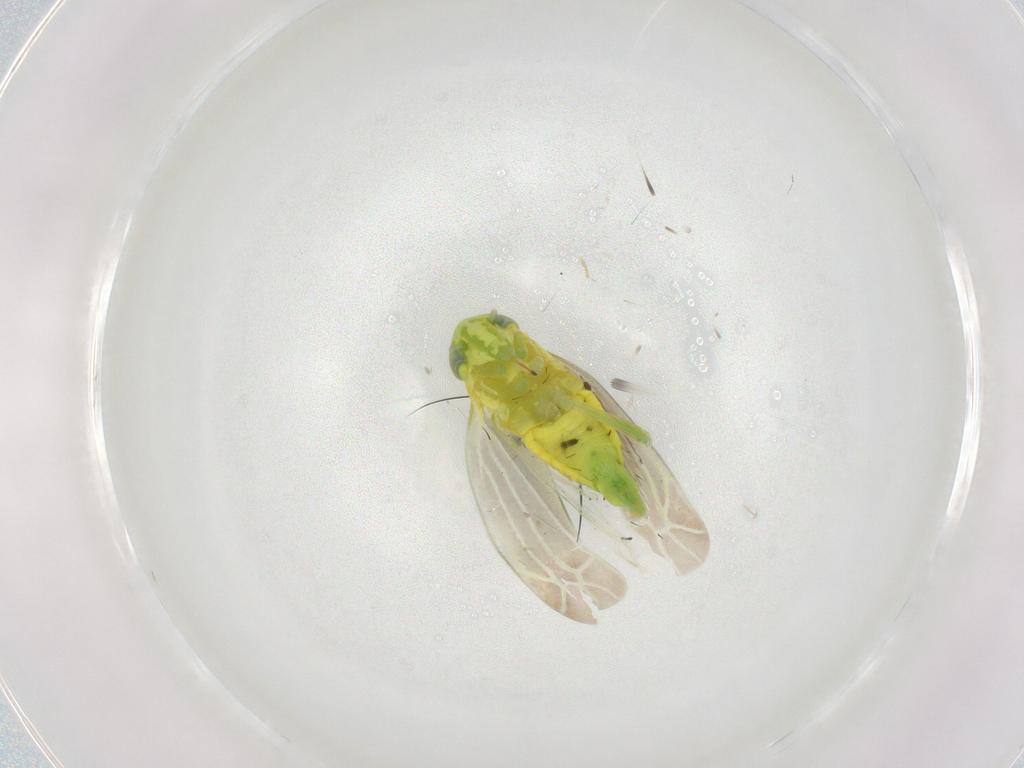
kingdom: Animalia
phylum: Arthropoda
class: Insecta
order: Hemiptera
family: Cicadellidae
